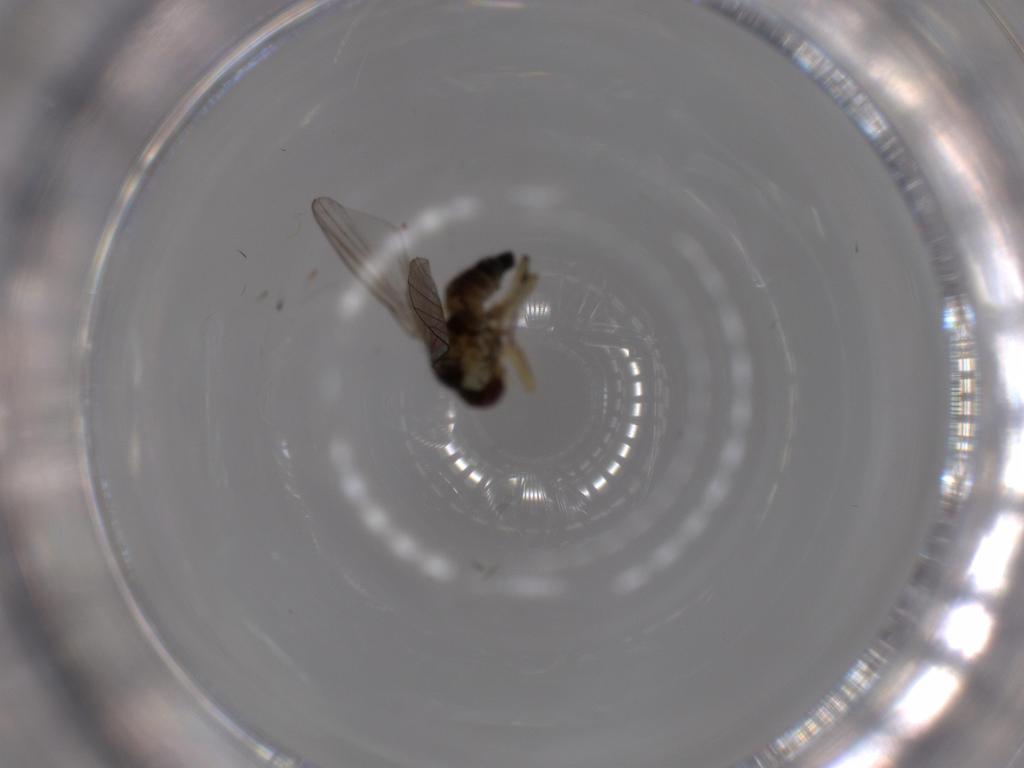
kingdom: Animalia
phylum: Arthropoda
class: Insecta
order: Diptera
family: Agromyzidae
